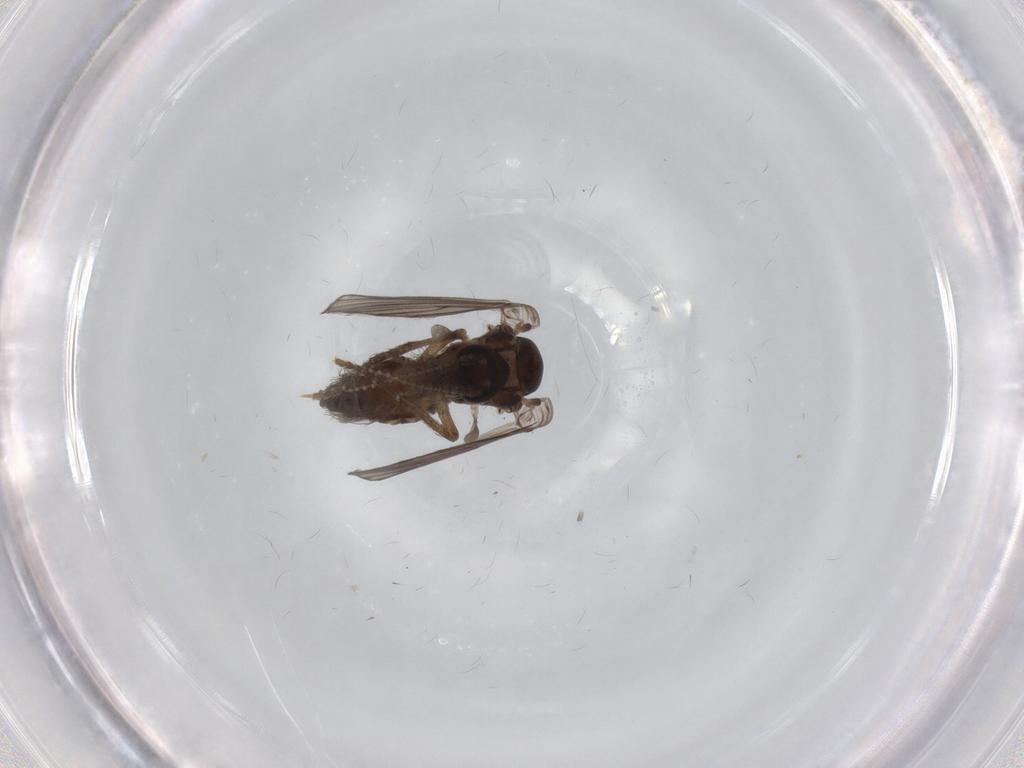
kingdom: Animalia
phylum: Arthropoda
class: Insecta
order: Diptera
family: Psychodidae
